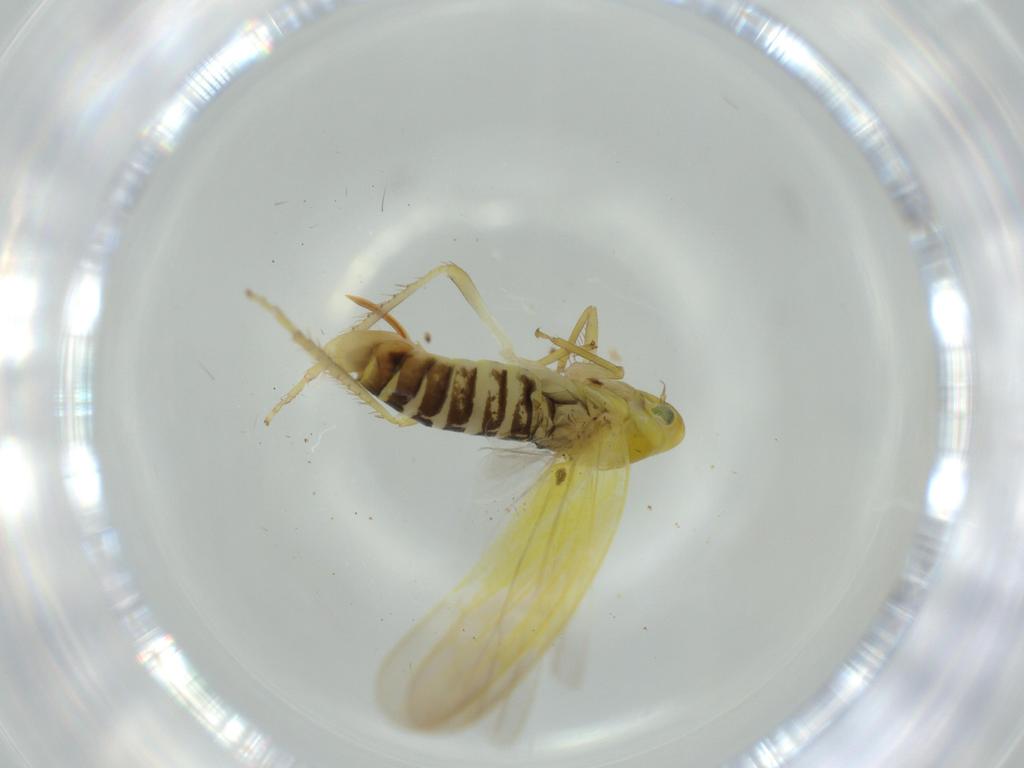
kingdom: Animalia
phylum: Arthropoda
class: Insecta
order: Hemiptera
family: Cicadellidae
